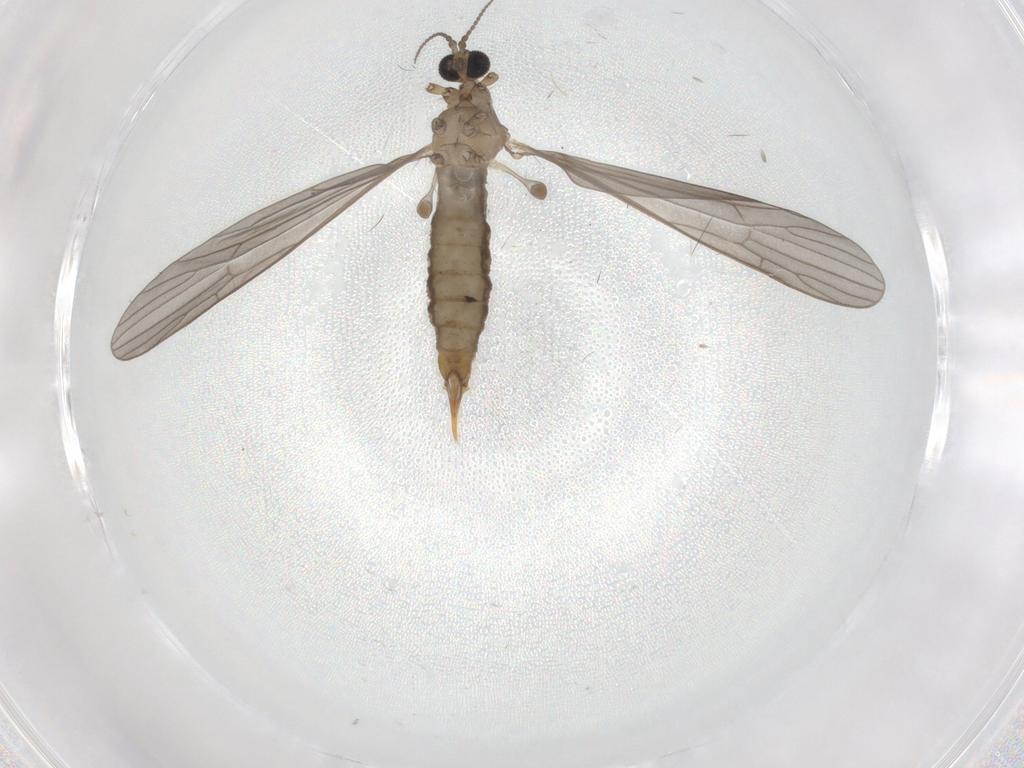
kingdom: Animalia
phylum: Arthropoda
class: Insecta
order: Diptera
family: Limoniidae
